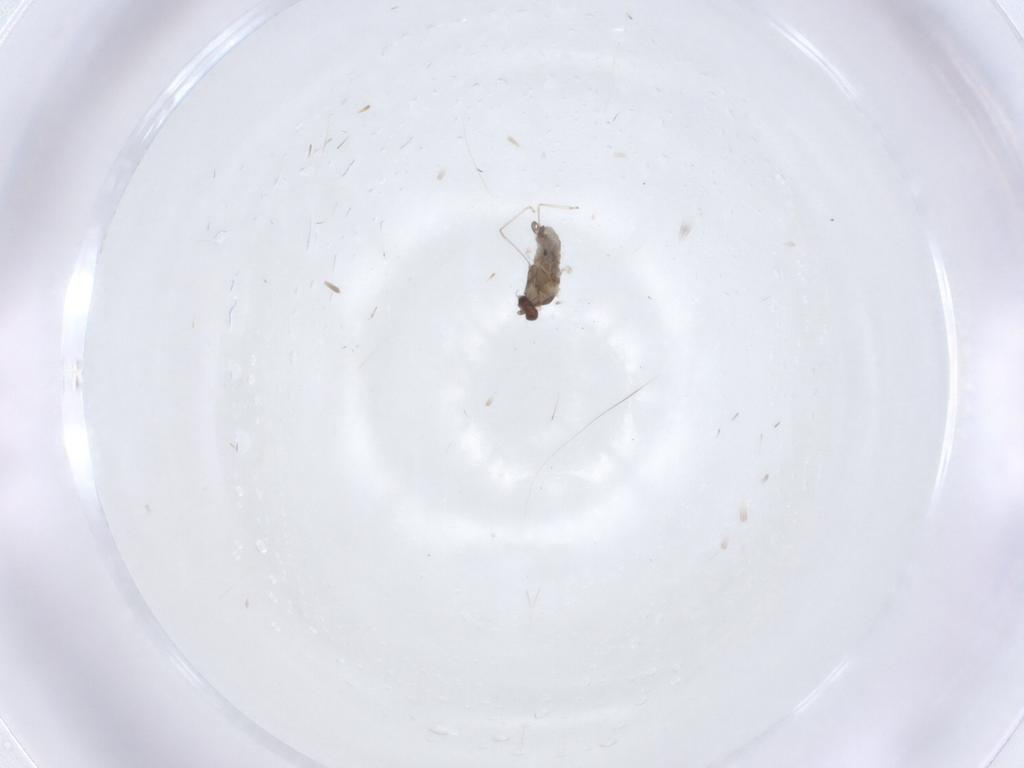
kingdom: Animalia
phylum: Arthropoda
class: Insecta
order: Diptera
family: Cecidomyiidae
